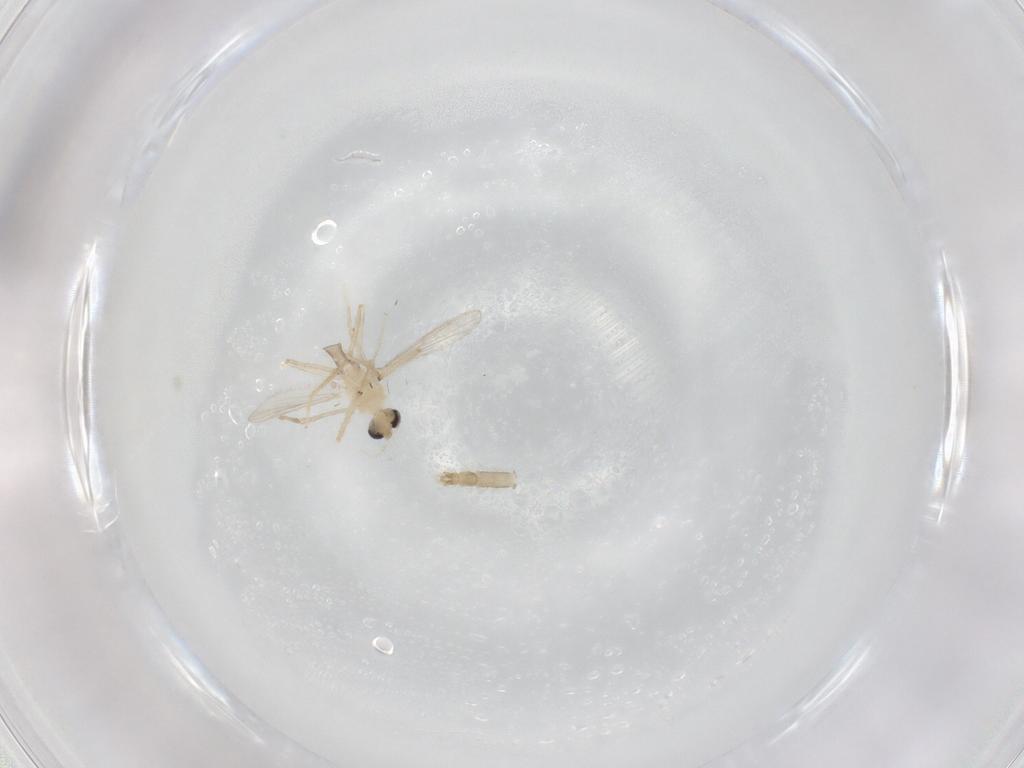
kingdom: Animalia
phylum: Arthropoda
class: Insecta
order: Diptera
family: Chironomidae
